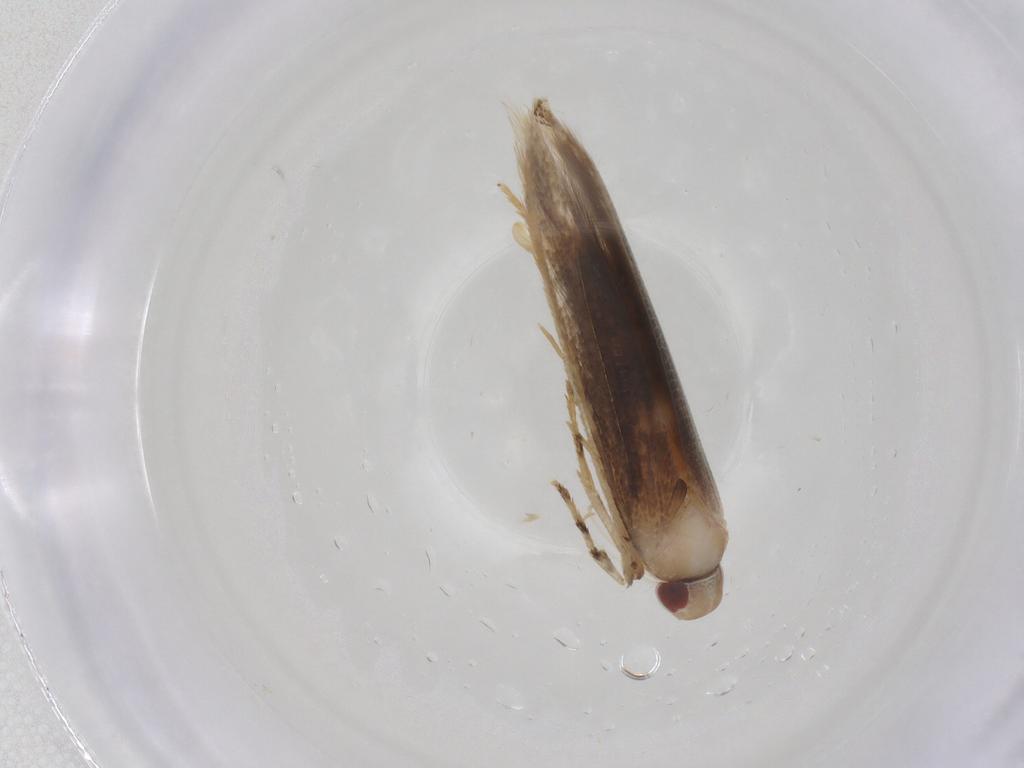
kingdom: Animalia
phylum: Arthropoda
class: Insecta
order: Lepidoptera
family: Cosmopterigidae
